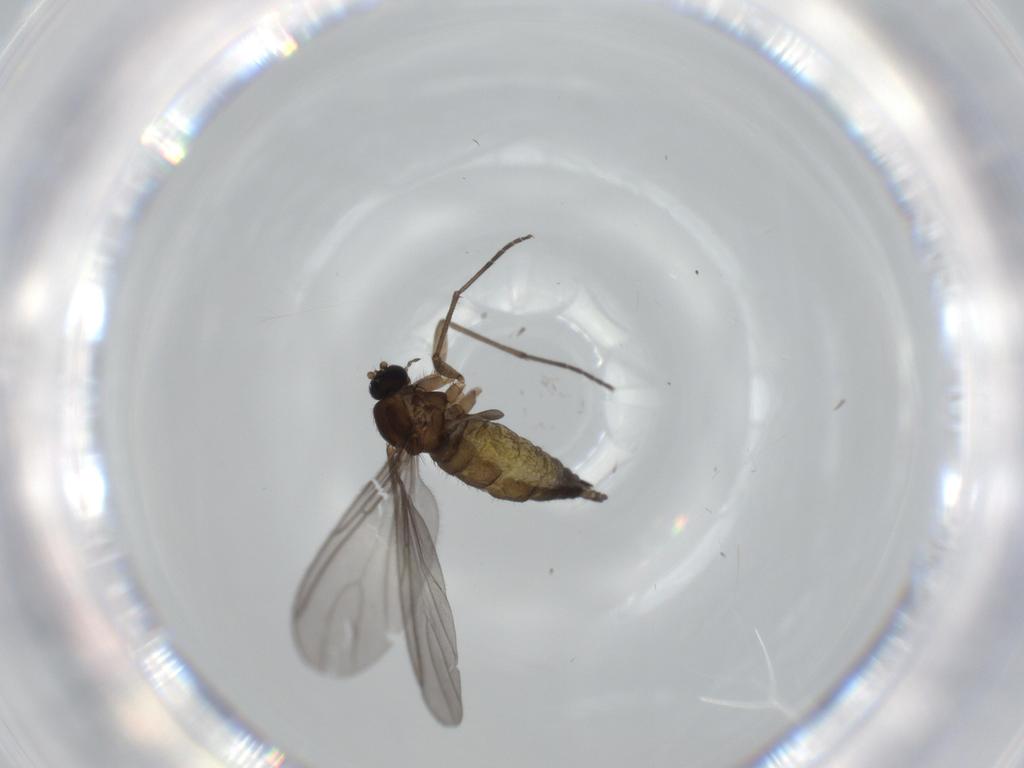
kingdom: Animalia
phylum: Arthropoda
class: Insecta
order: Diptera
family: Sciaridae
